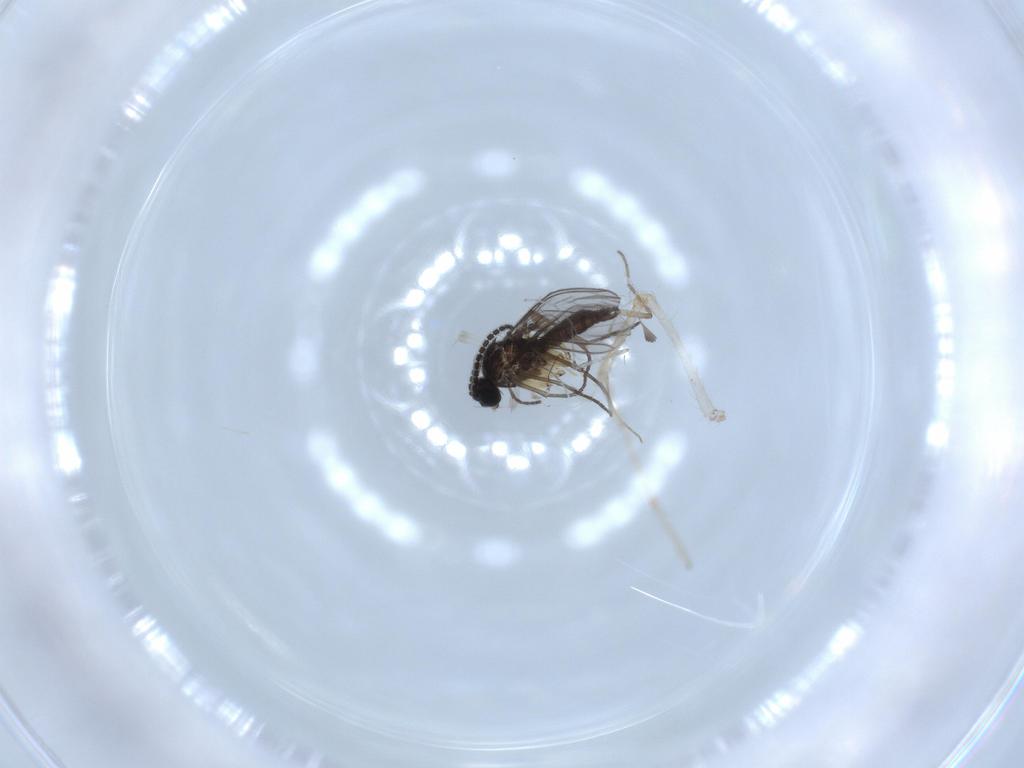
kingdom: Animalia
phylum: Arthropoda
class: Insecta
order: Diptera
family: Sciaridae
